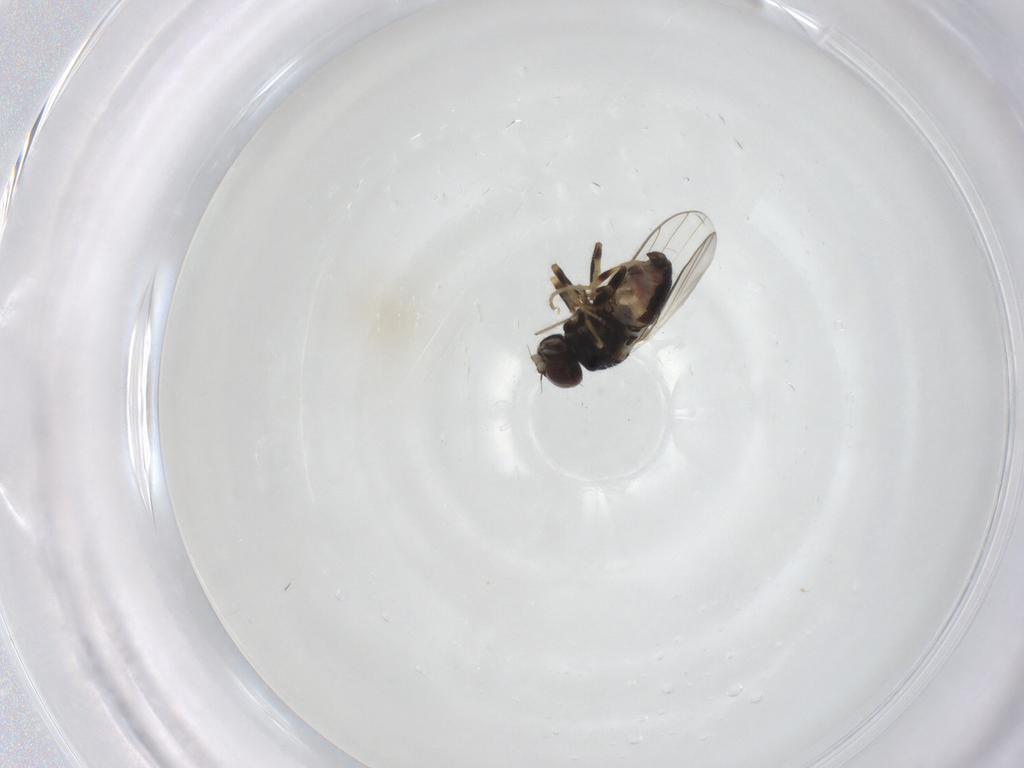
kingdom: Animalia
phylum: Arthropoda
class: Insecta
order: Diptera
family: Chloropidae
